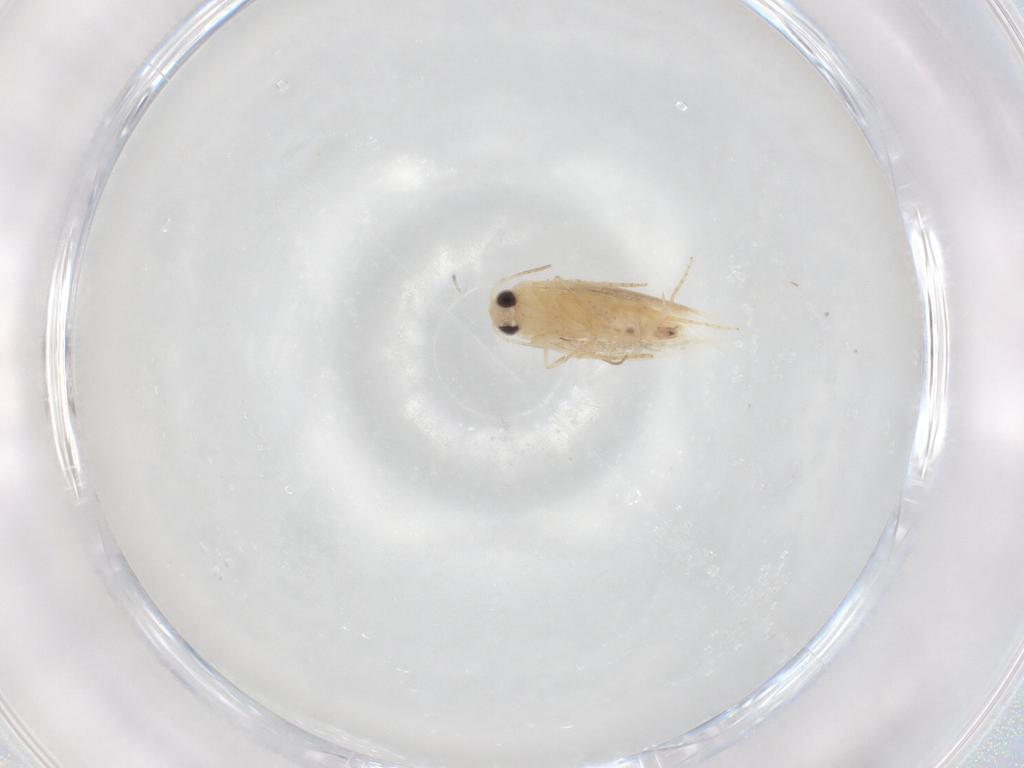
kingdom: Animalia
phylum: Arthropoda
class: Insecta
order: Lepidoptera
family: Depressariidae
